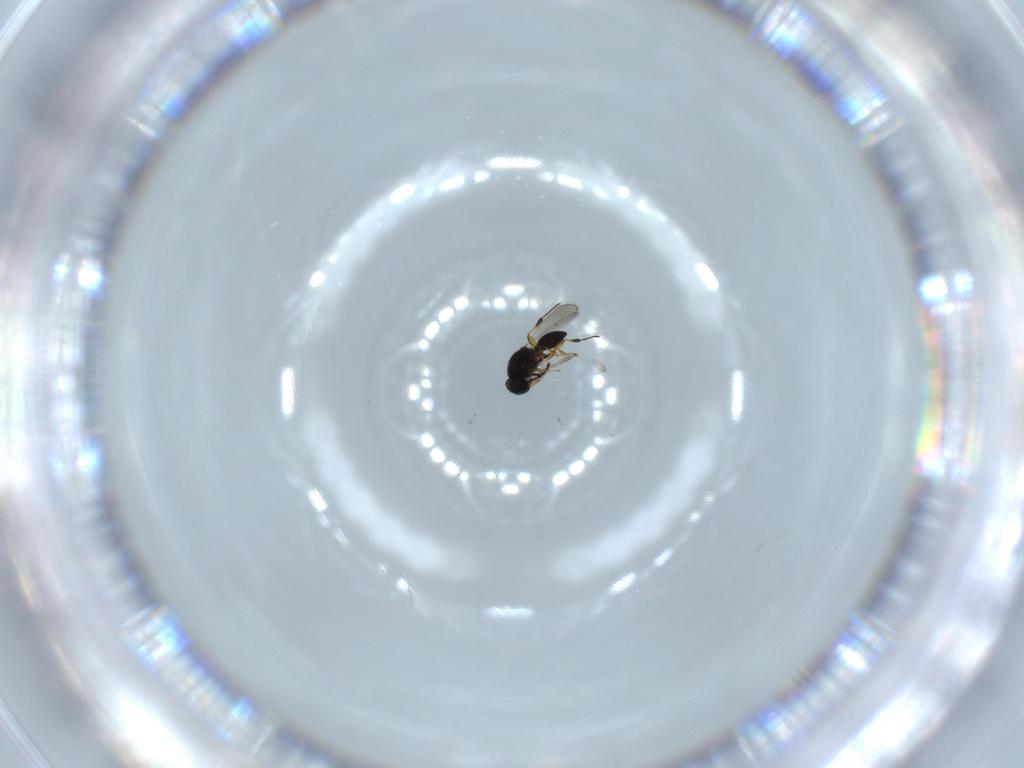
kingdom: Animalia
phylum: Arthropoda
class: Insecta
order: Hymenoptera
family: Platygastridae
